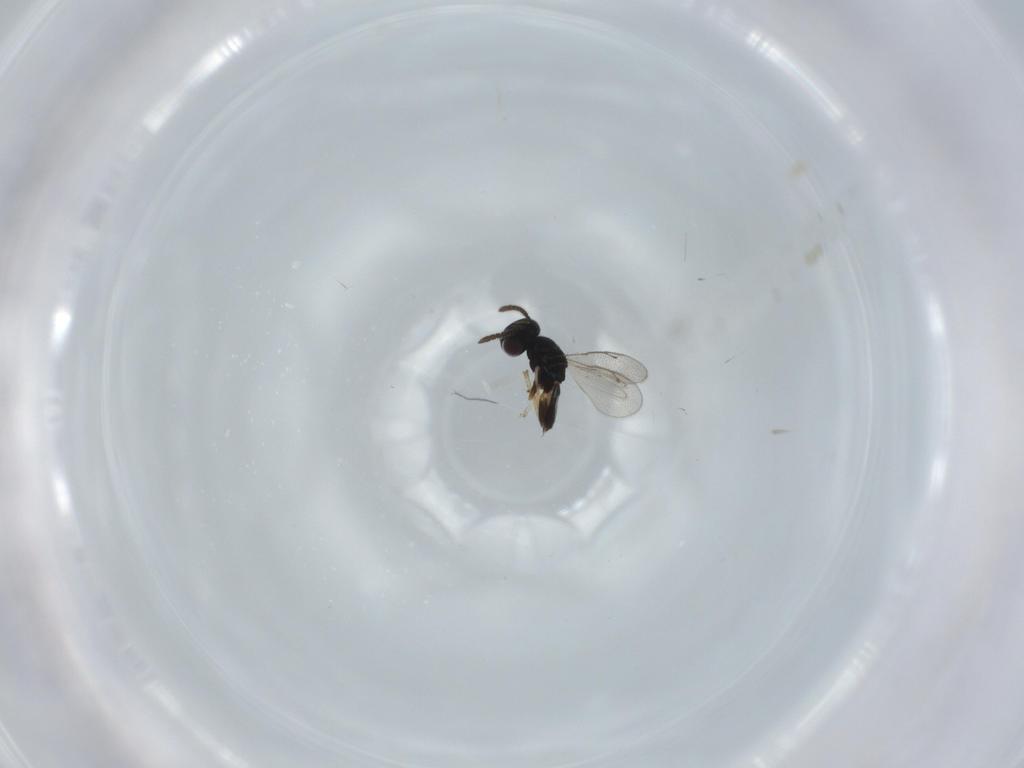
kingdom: Animalia
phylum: Arthropoda
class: Insecta
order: Hymenoptera
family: Pteromalidae
